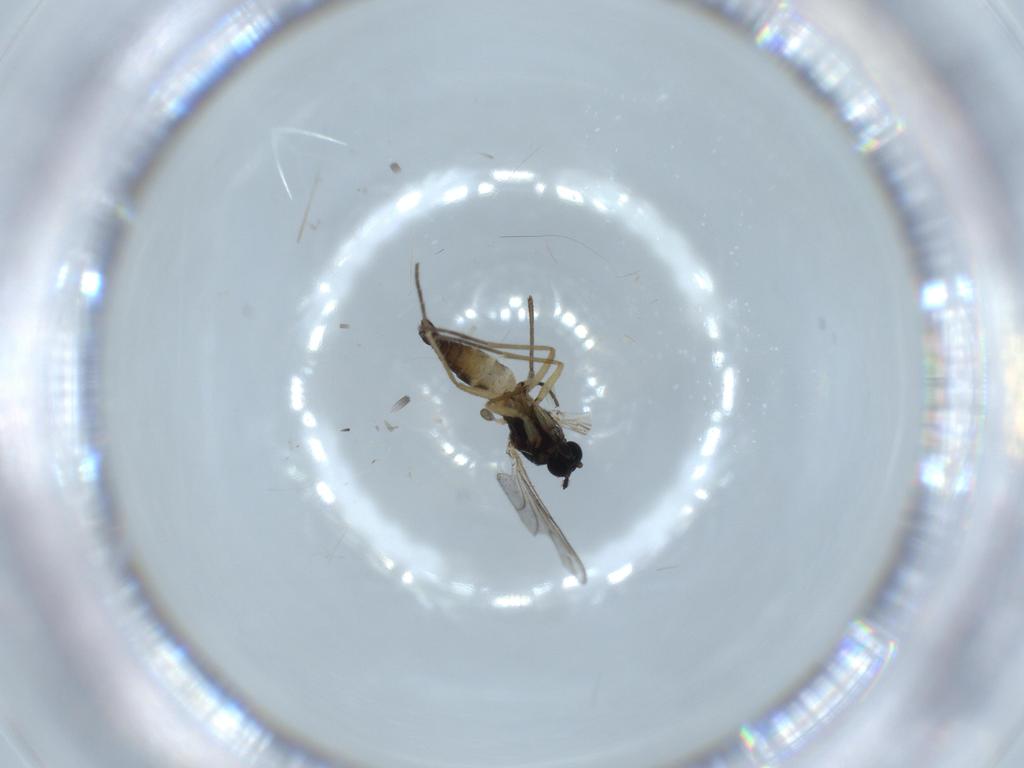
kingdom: Animalia
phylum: Arthropoda
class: Insecta
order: Diptera
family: Sciaridae
